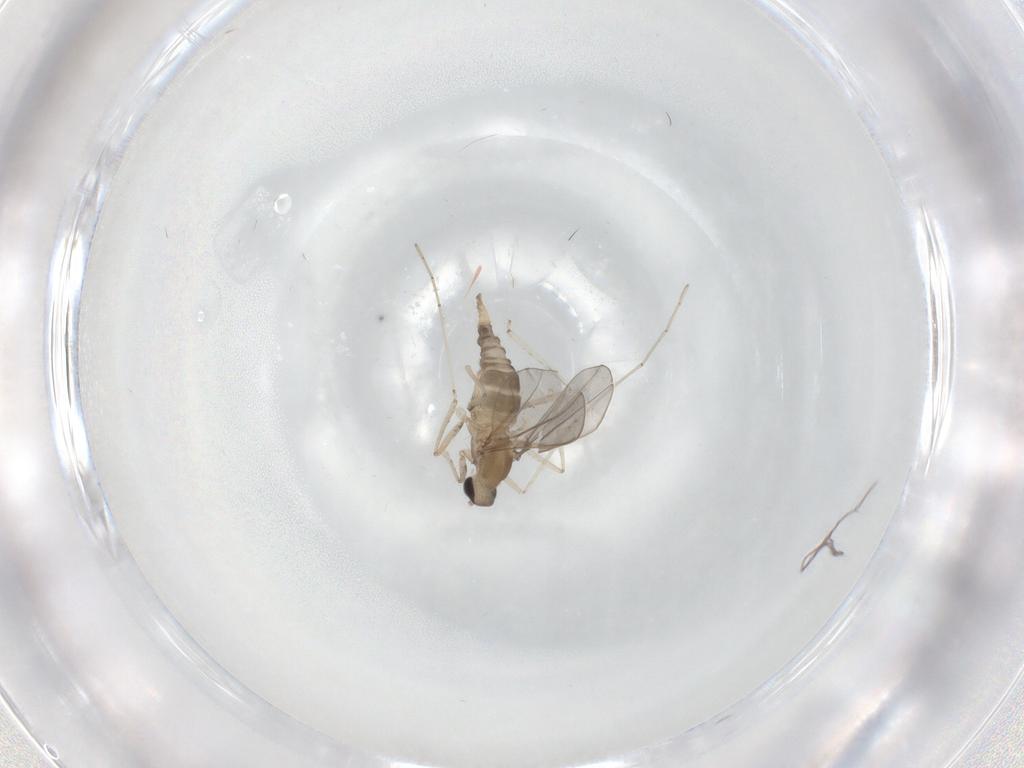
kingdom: Animalia
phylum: Arthropoda
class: Insecta
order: Diptera
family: Cecidomyiidae
